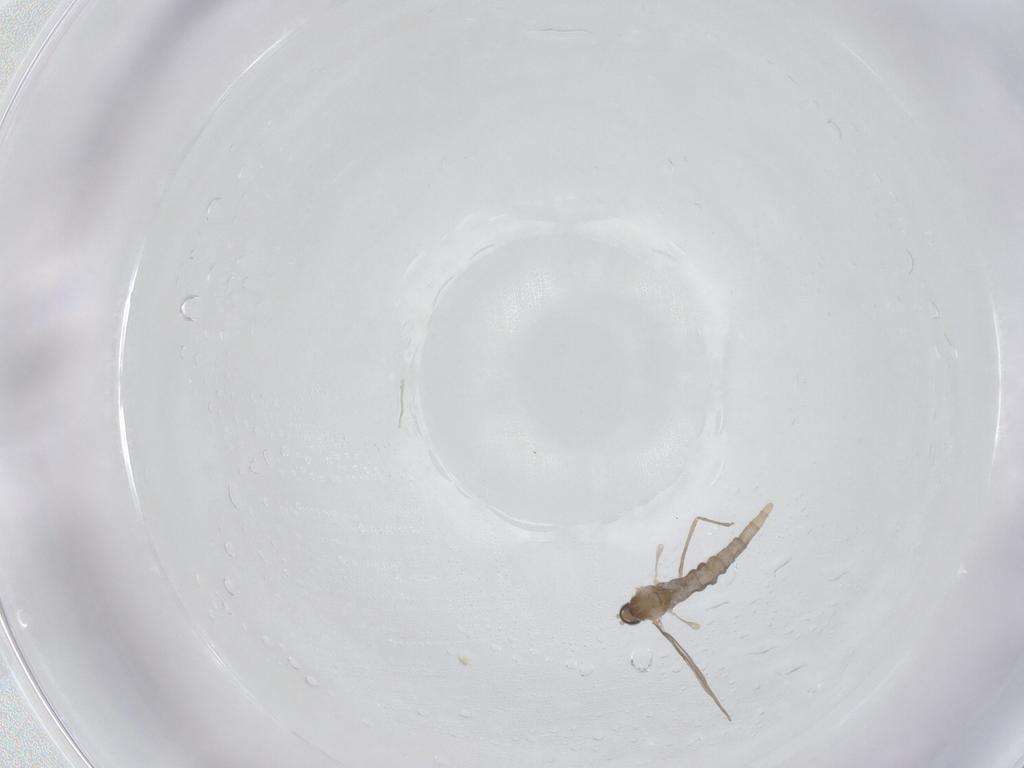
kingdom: Animalia
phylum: Arthropoda
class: Insecta
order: Diptera
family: Cecidomyiidae
